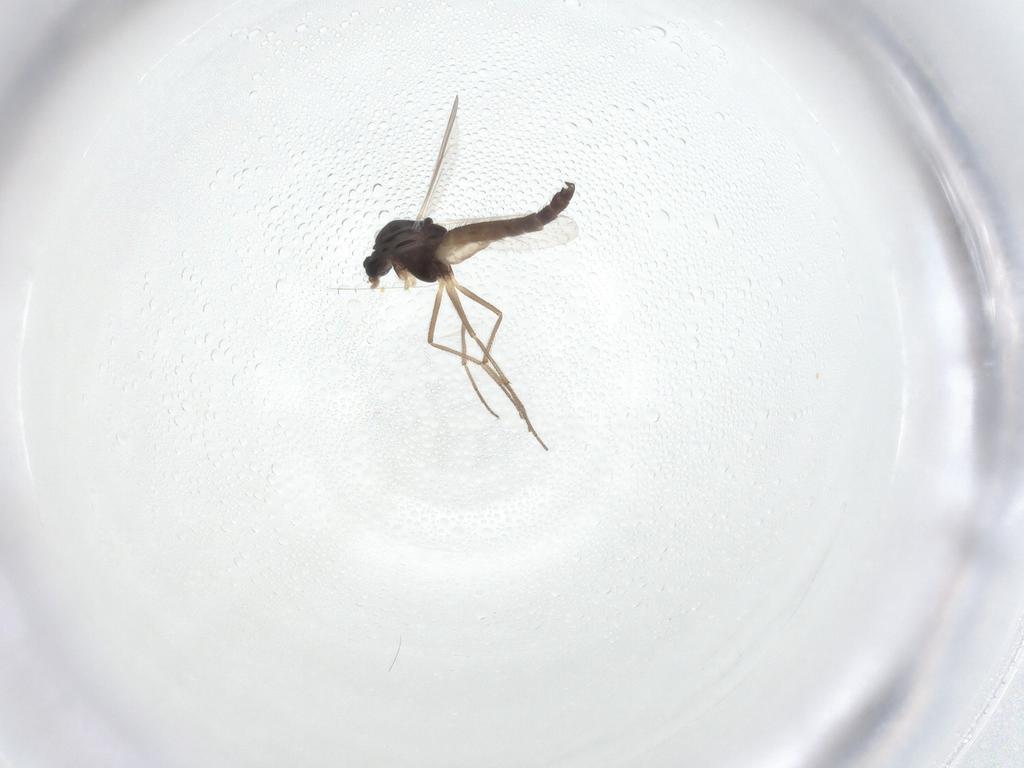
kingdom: Animalia
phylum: Arthropoda
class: Insecta
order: Diptera
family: Chironomidae
